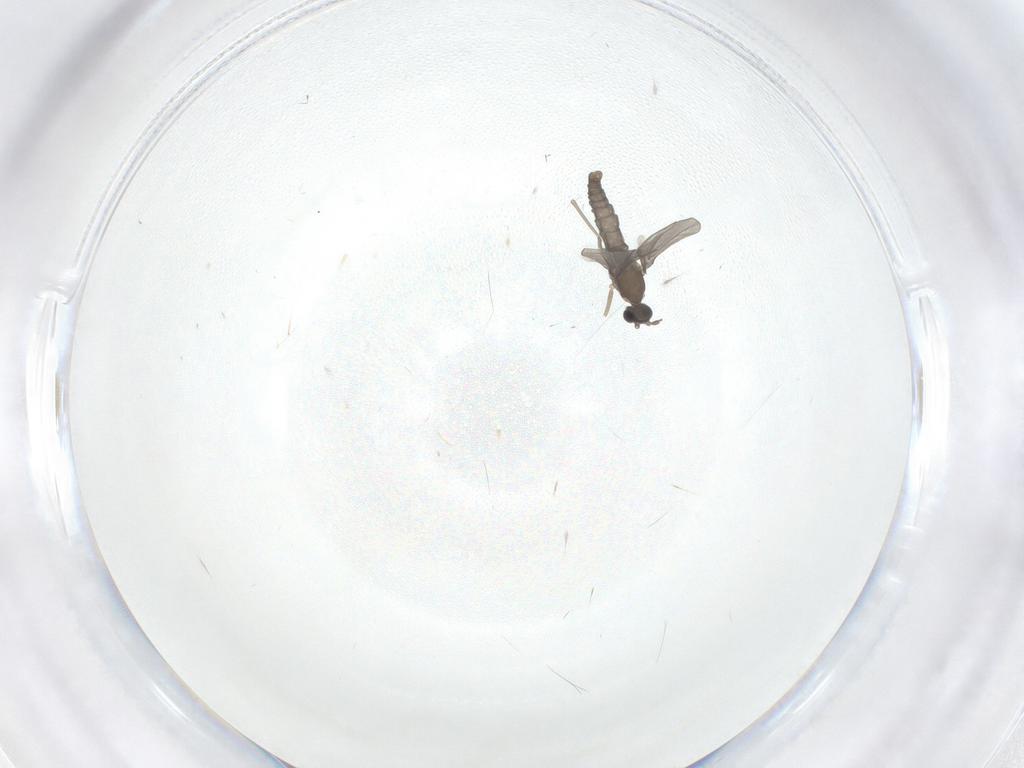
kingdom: Animalia
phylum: Arthropoda
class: Insecta
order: Diptera
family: Cecidomyiidae
